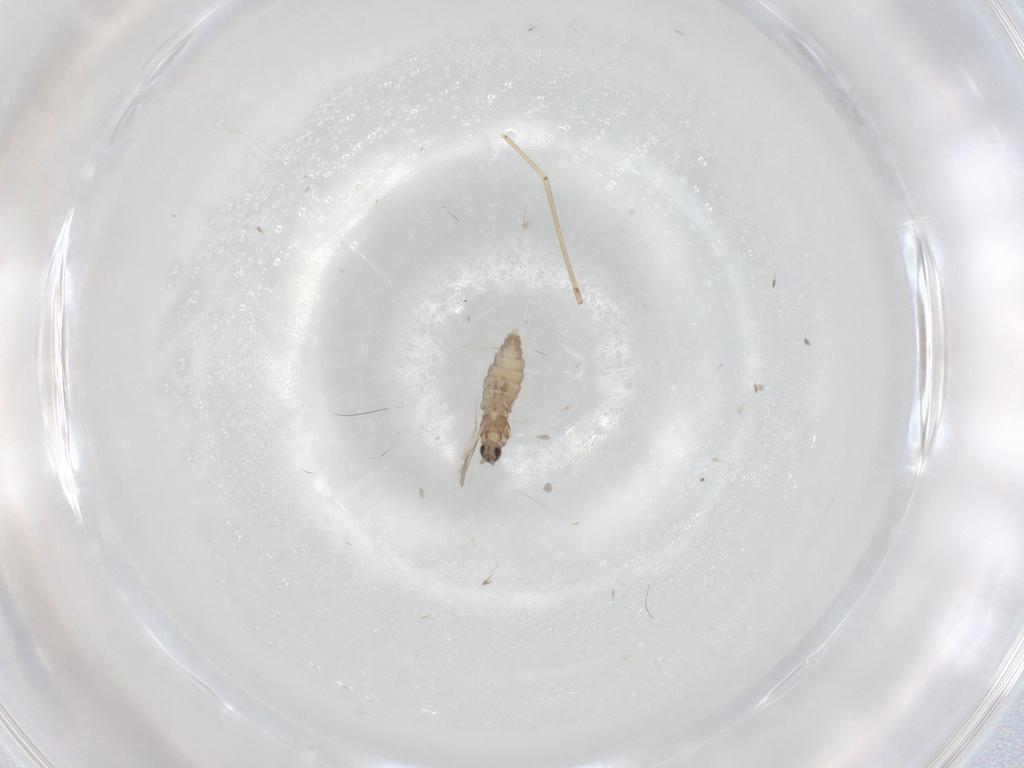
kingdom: Animalia
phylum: Arthropoda
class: Insecta
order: Diptera
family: Cecidomyiidae
